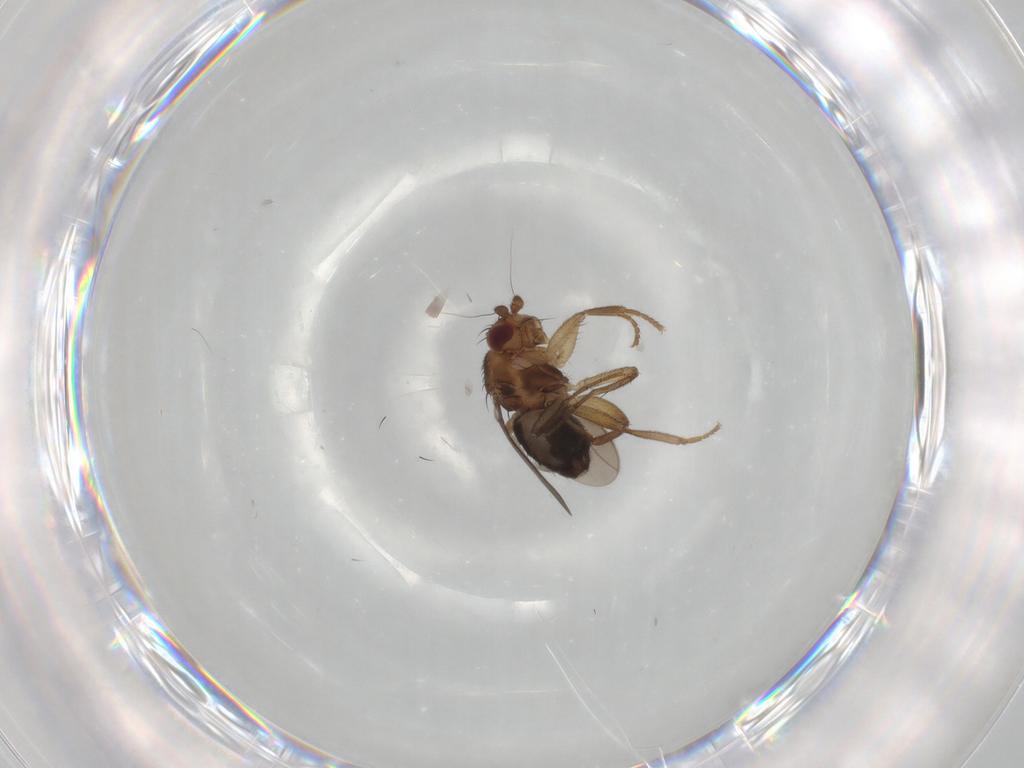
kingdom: Animalia
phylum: Arthropoda
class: Insecta
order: Diptera
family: Sphaeroceridae
